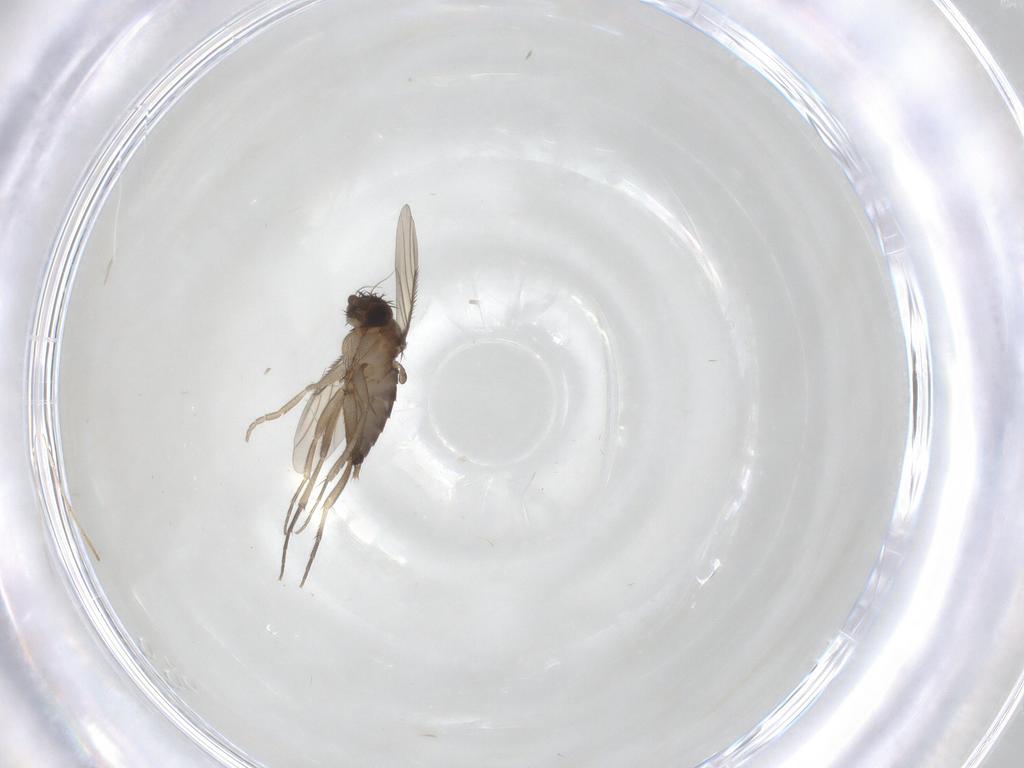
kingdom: Animalia
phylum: Arthropoda
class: Insecta
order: Diptera
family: Phoridae
